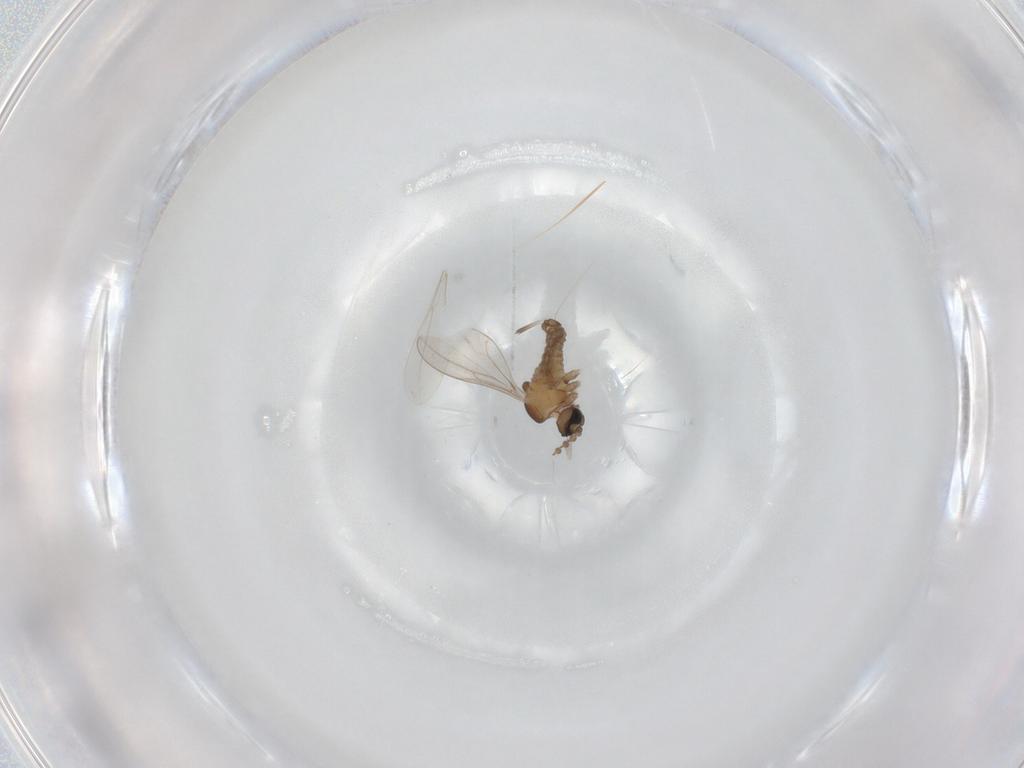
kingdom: Animalia
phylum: Arthropoda
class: Insecta
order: Diptera
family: Cecidomyiidae
